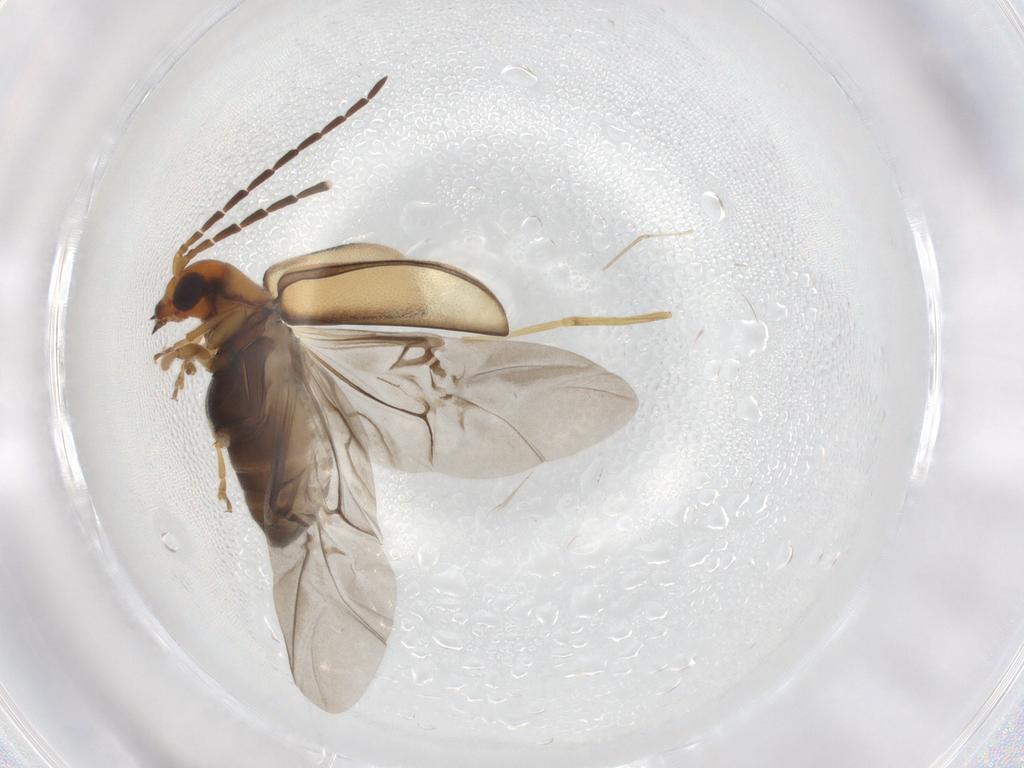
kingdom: Animalia
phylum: Arthropoda
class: Insecta
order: Coleoptera
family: Chrysomelidae
